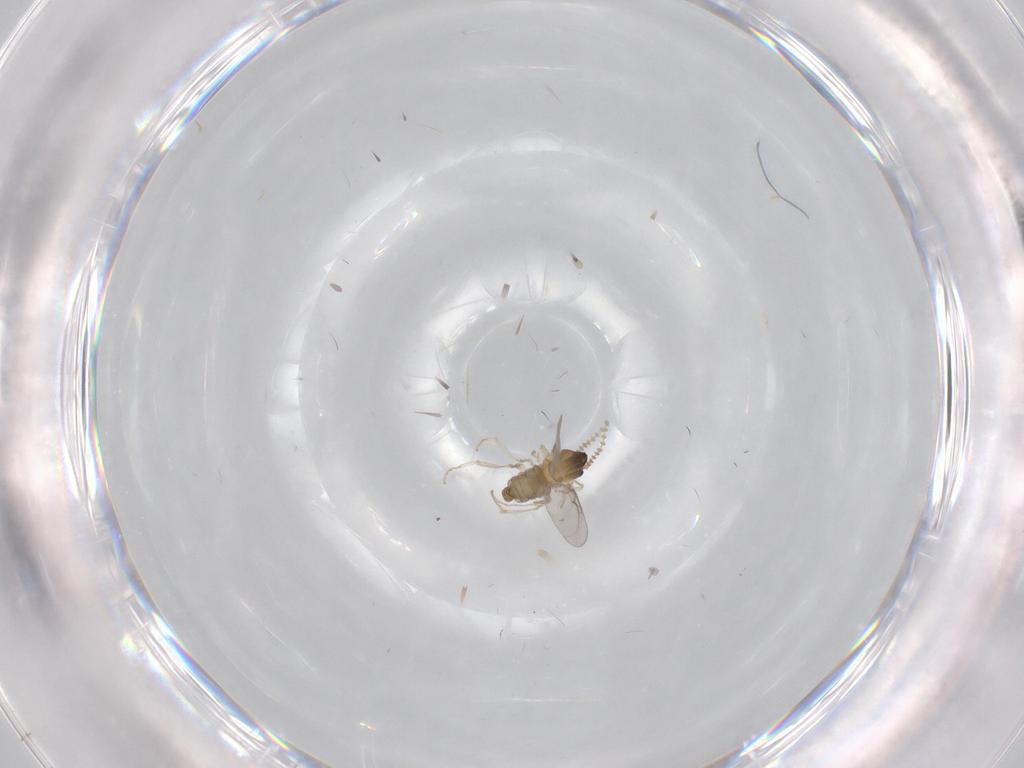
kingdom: Animalia
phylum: Arthropoda
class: Insecta
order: Diptera
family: Cecidomyiidae
